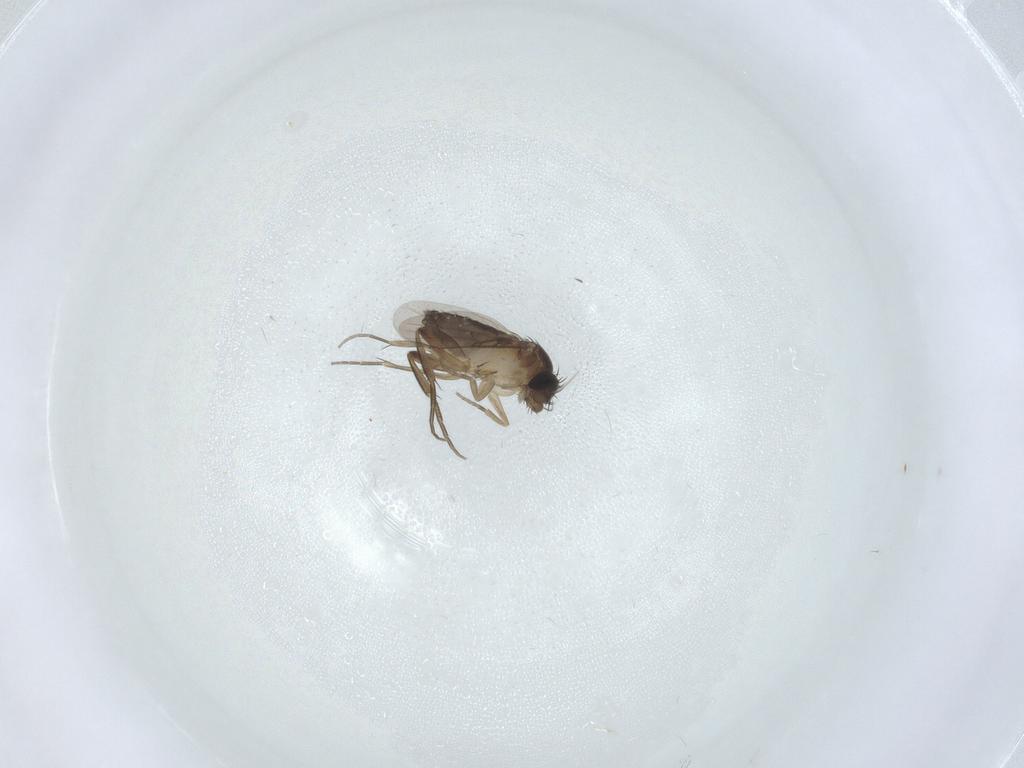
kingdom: Animalia
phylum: Arthropoda
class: Insecta
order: Diptera
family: Phoridae
